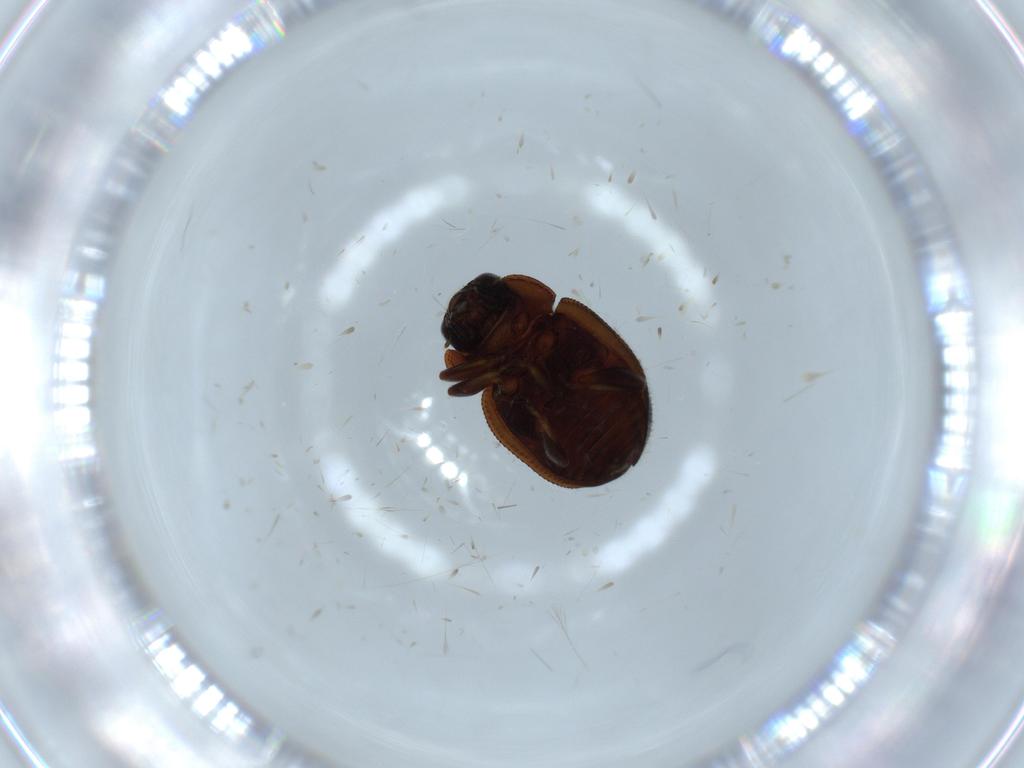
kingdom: Animalia
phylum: Arthropoda
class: Insecta
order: Coleoptera
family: Coccinellidae
